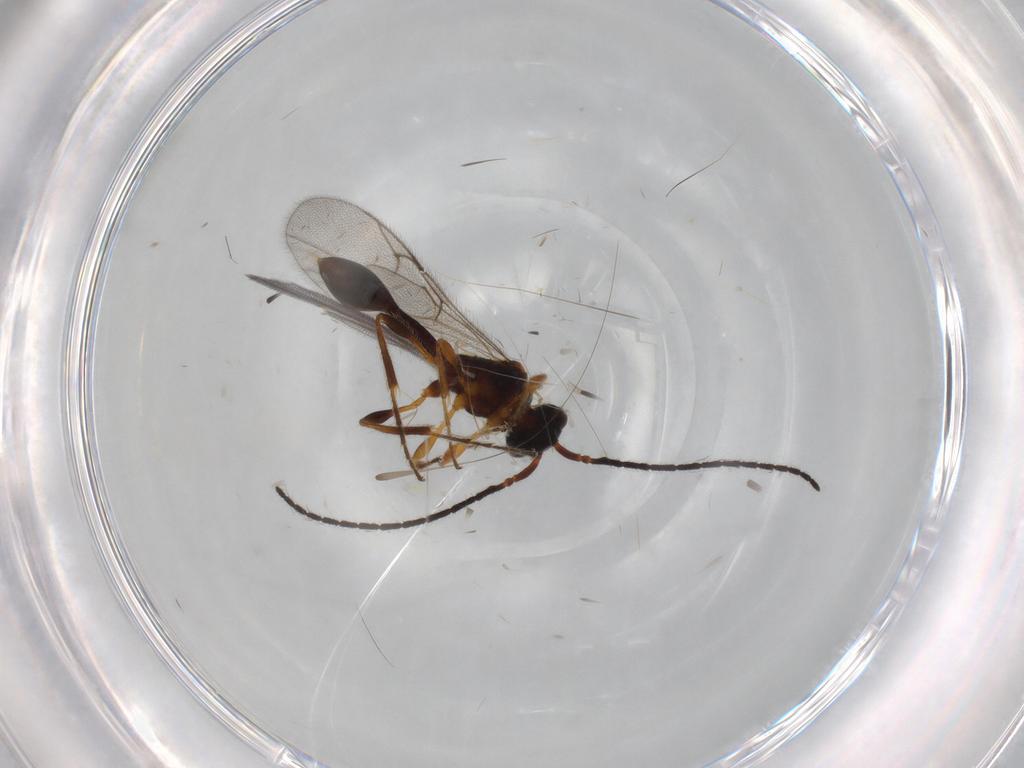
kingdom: Animalia
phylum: Arthropoda
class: Insecta
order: Hymenoptera
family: Diapriidae
